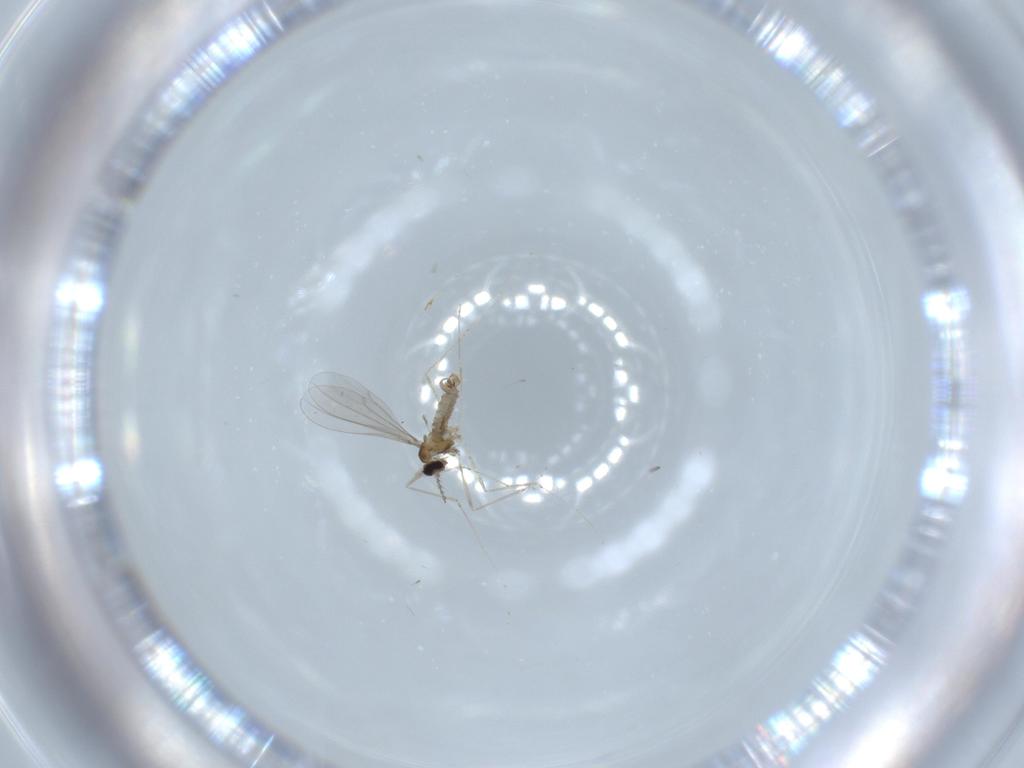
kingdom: Animalia
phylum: Arthropoda
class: Insecta
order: Diptera
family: Cecidomyiidae
